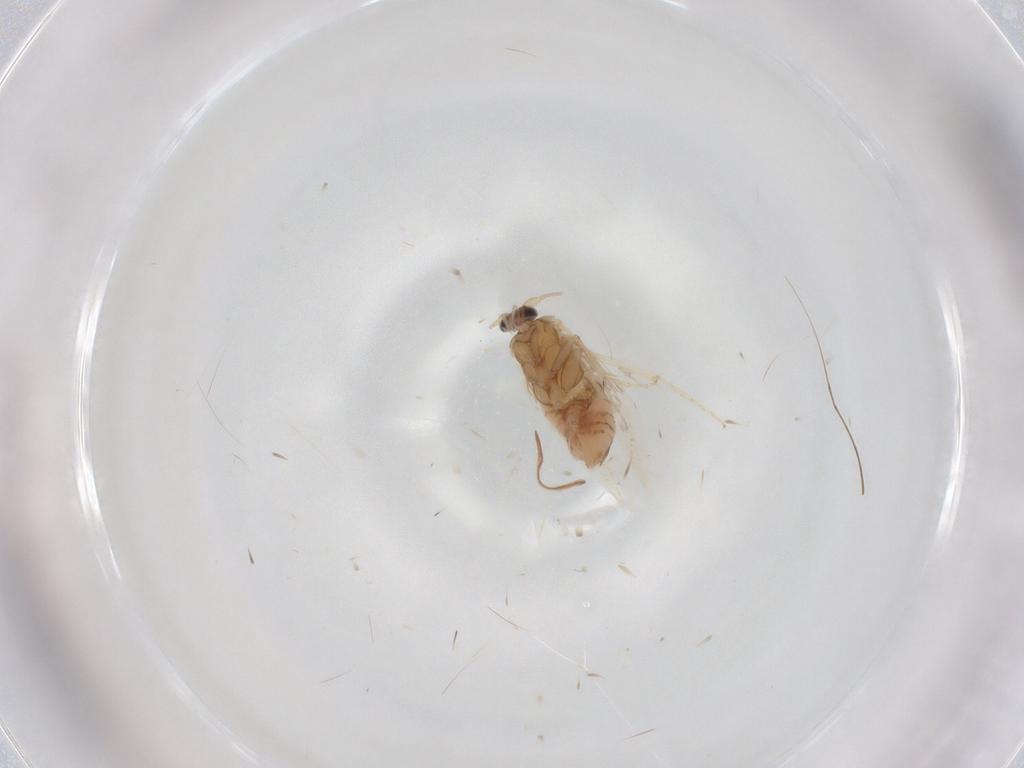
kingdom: Animalia
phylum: Arthropoda
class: Insecta
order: Lepidoptera
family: Nepticulidae
